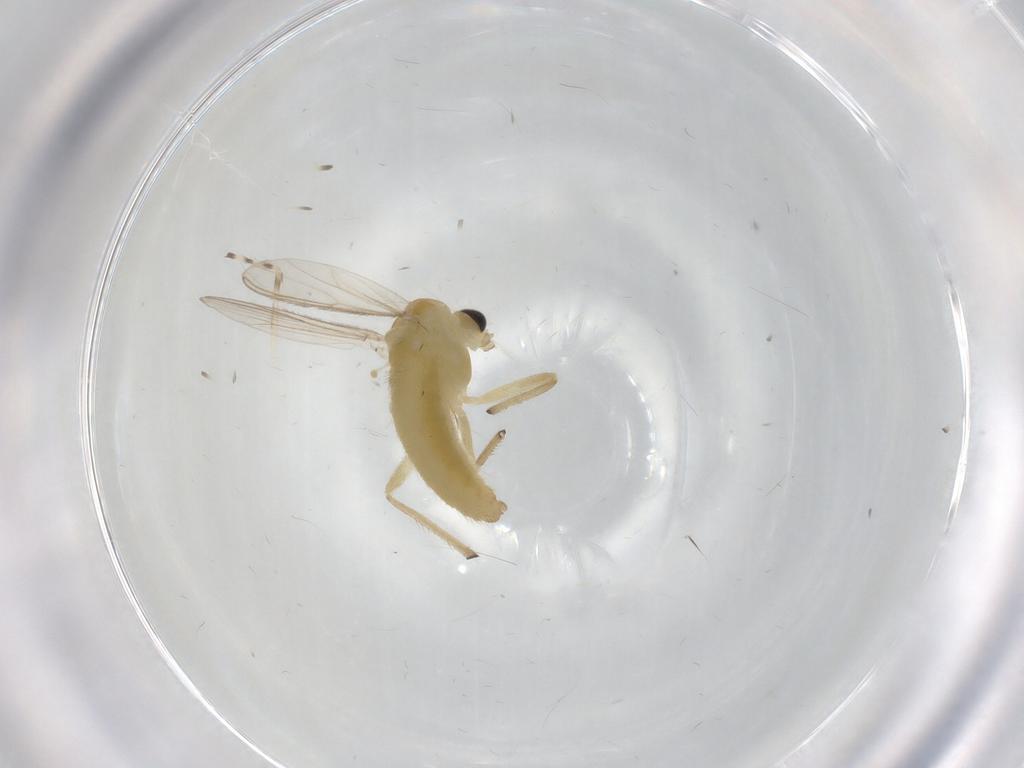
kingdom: Animalia
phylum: Arthropoda
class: Insecta
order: Diptera
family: Chironomidae
